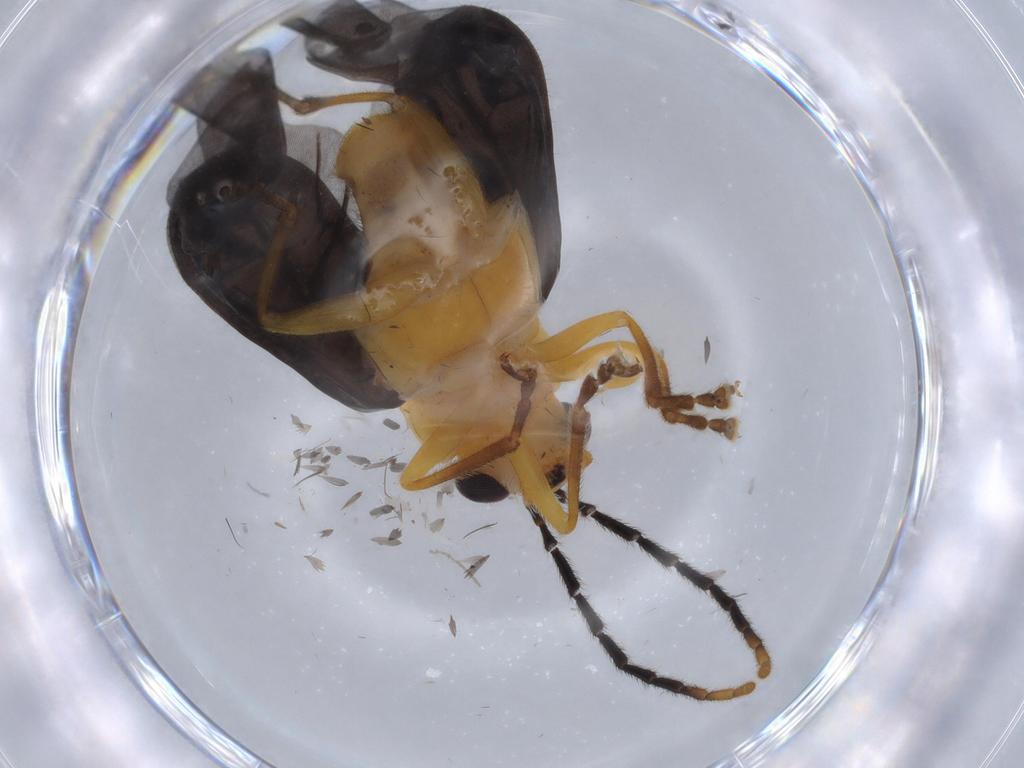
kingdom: Animalia
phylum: Arthropoda
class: Insecta
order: Coleoptera
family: Chrysomelidae
